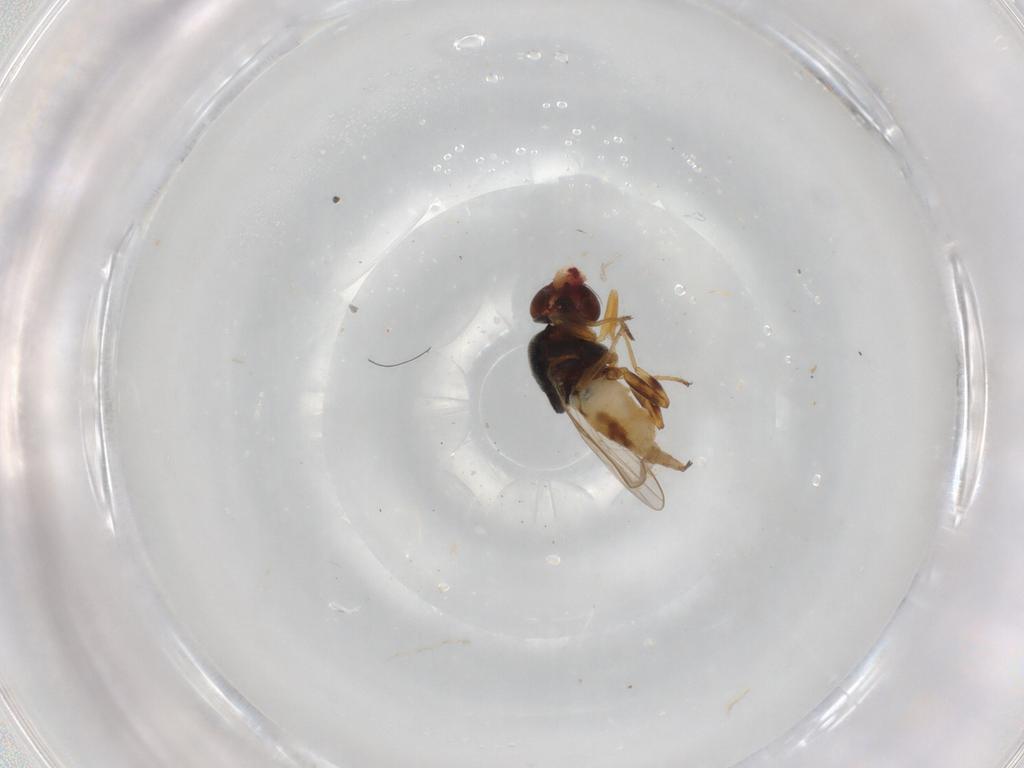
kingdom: Animalia
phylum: Arthropoda
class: Insecta
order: Diptera
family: Chloropidae
